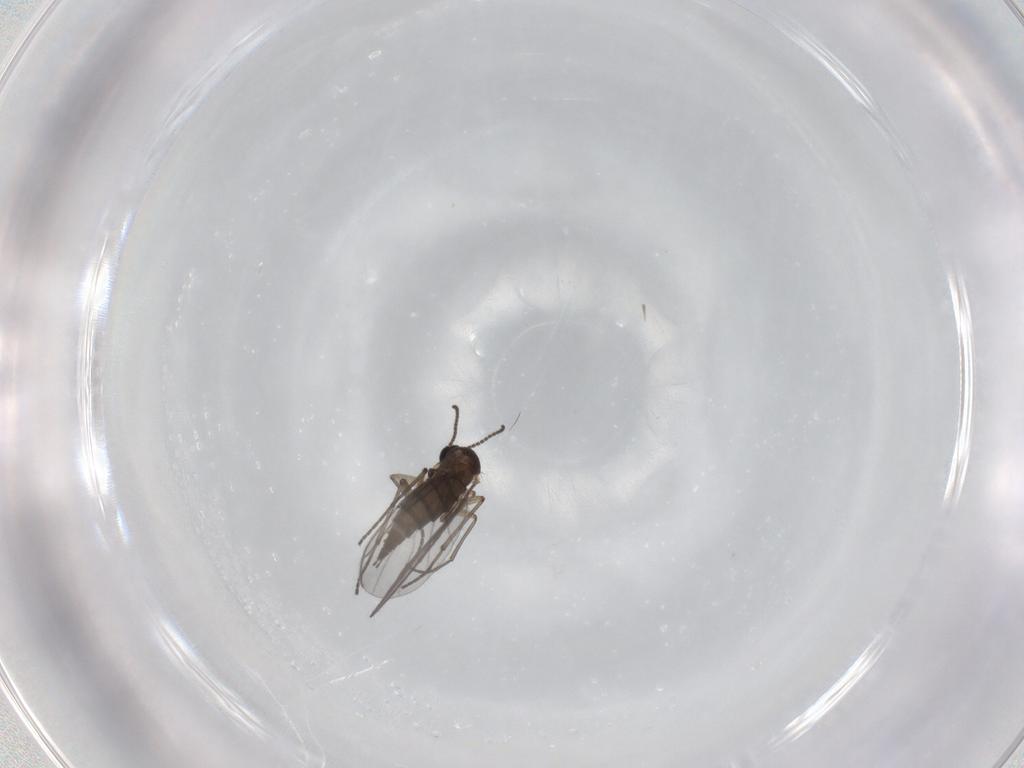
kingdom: Animalia
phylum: Arthropoda
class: Insecta
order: Diptera
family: Sciaridae
